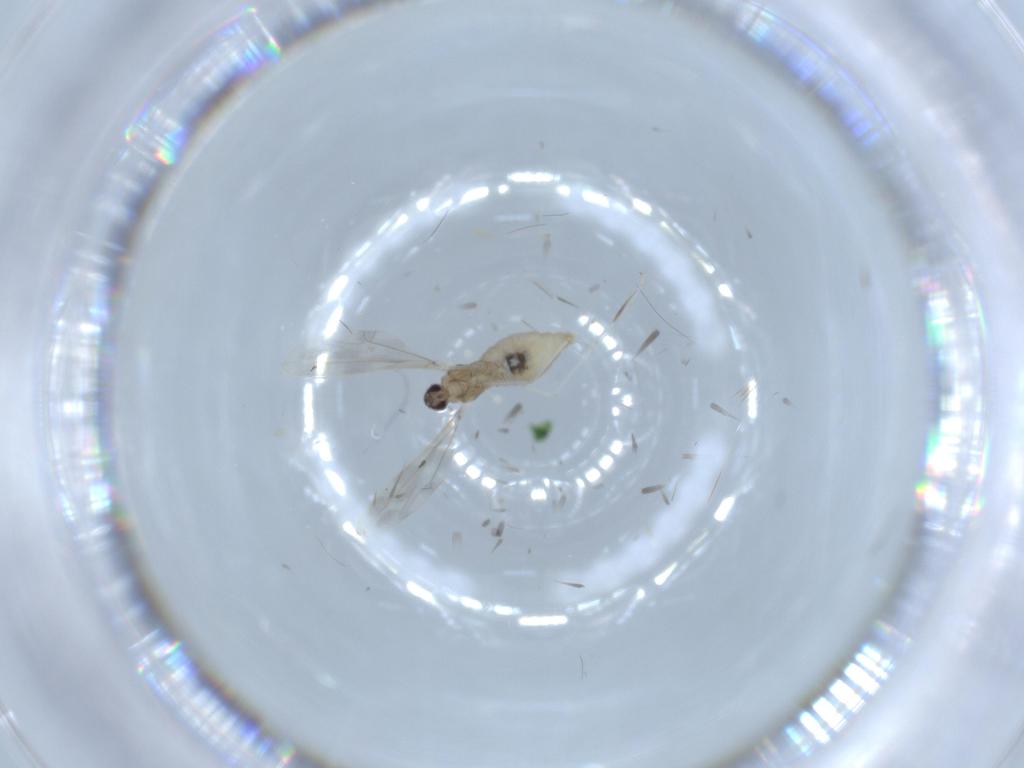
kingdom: Animalia
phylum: Arthropoda
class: Insecta
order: Diptera
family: Cecidomyiidae
